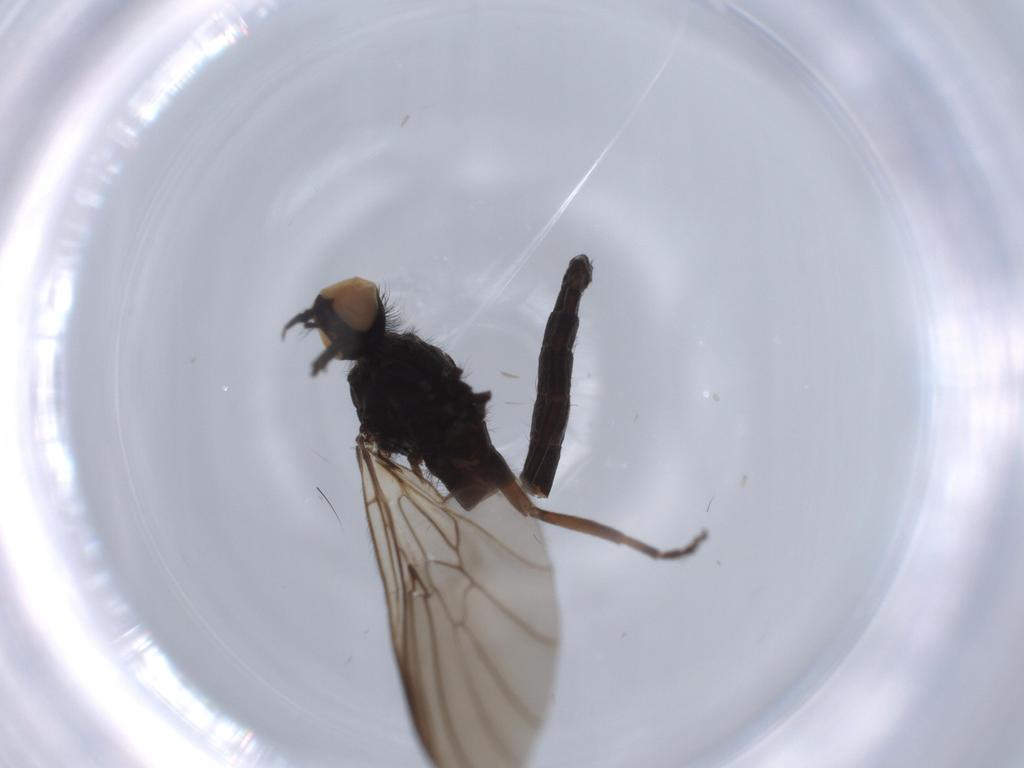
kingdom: Animalia
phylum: Arthropoda
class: Insecta
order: Diptera
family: Empididae
